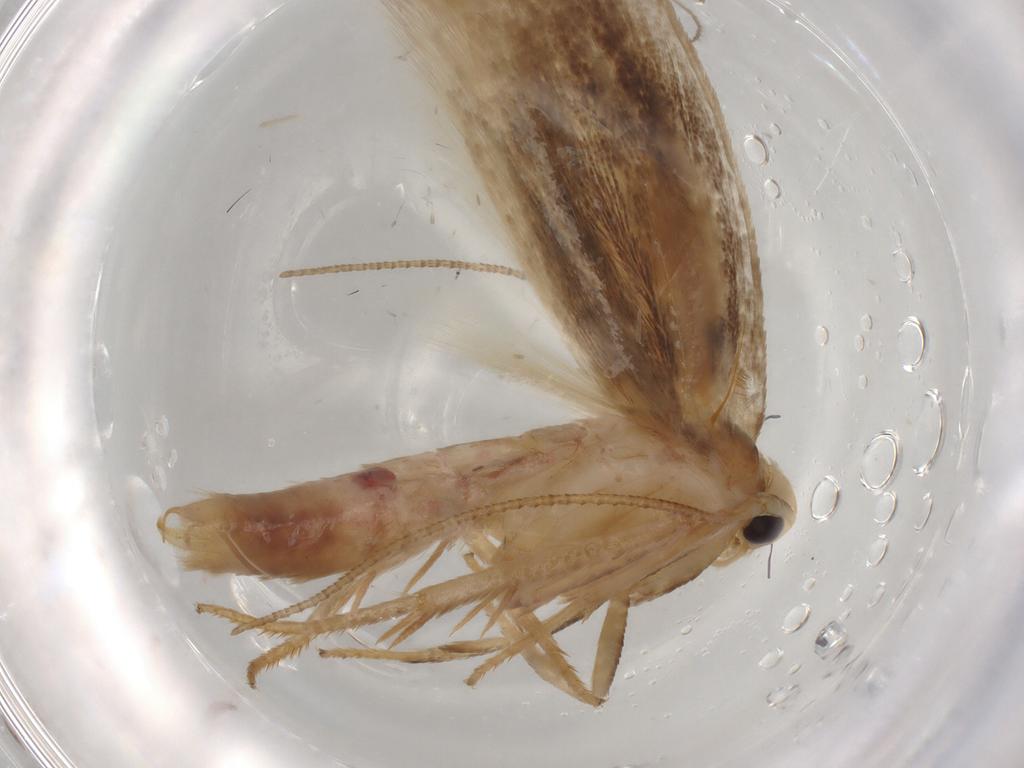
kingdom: Animalia
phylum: Arthropoda
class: Insecta
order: Lepidoptera
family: Geometridae
